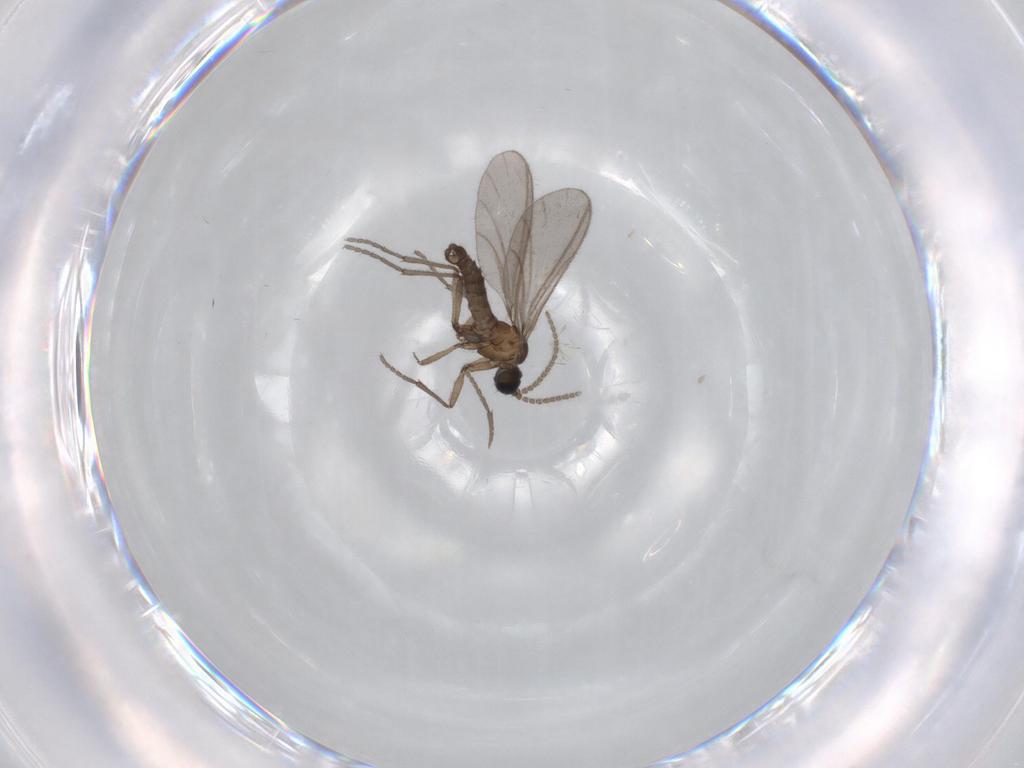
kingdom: Animalia
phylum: Arthropoda
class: Insecta
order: Diptera
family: Sciaridae
